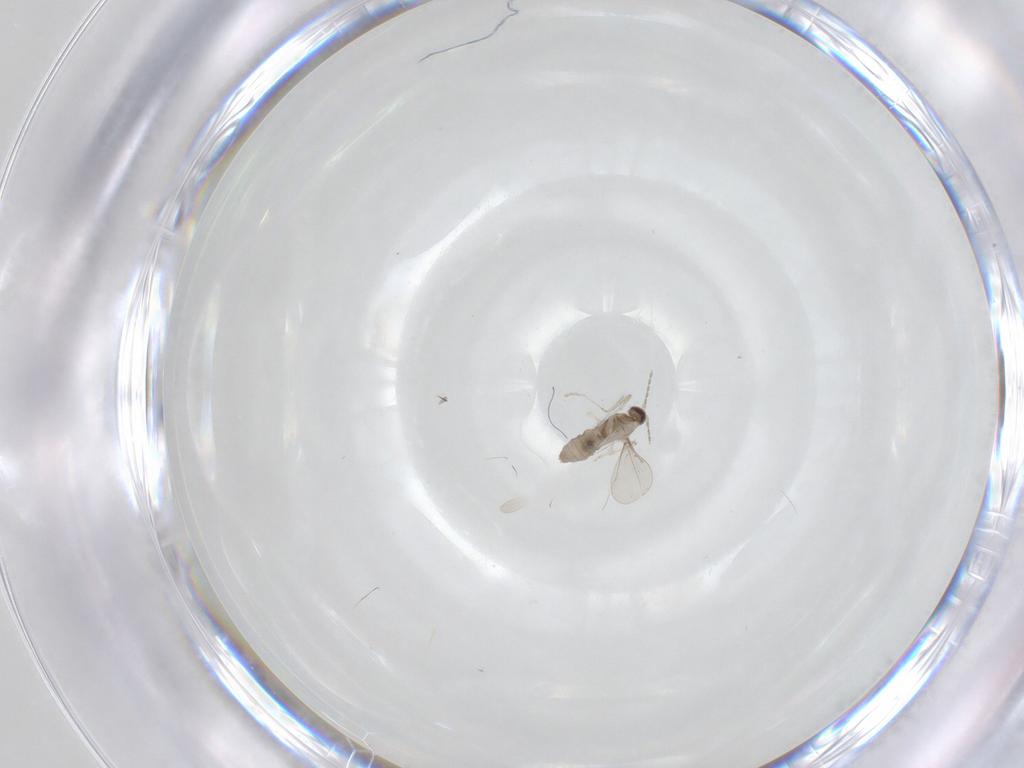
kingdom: Animalia
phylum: Arthropoda
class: Insecta
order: Diptera
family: Cecidomyiidae
